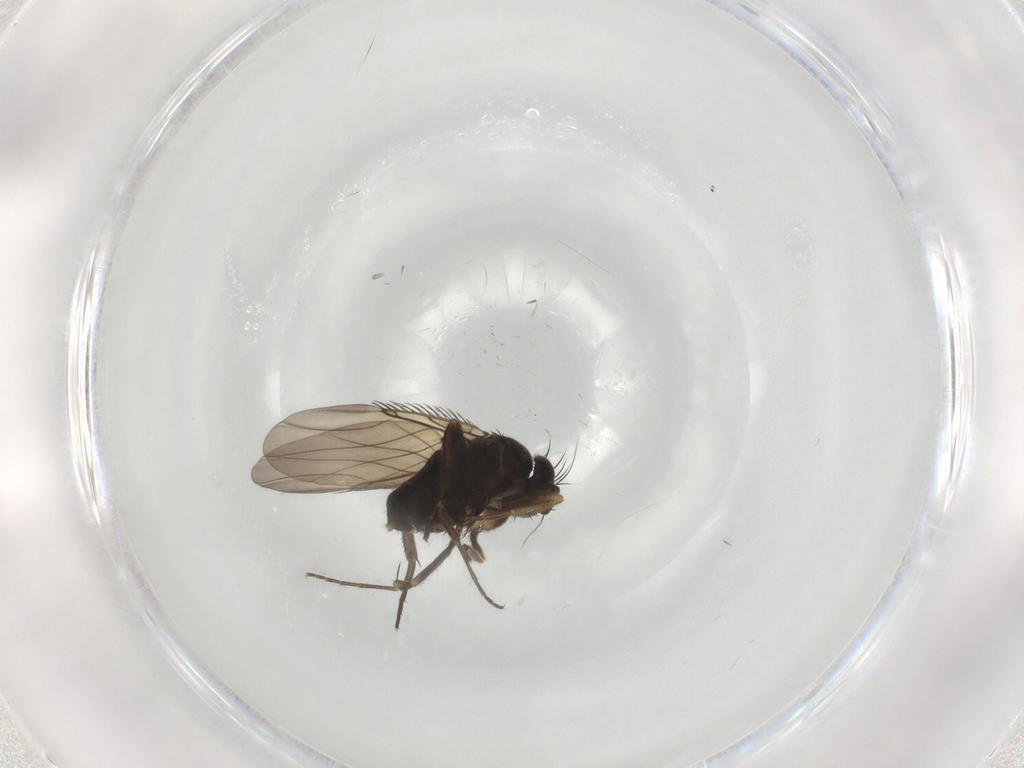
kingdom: Animalia
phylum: Arthropoda
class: Insecta
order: Diptera
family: Phoridae
